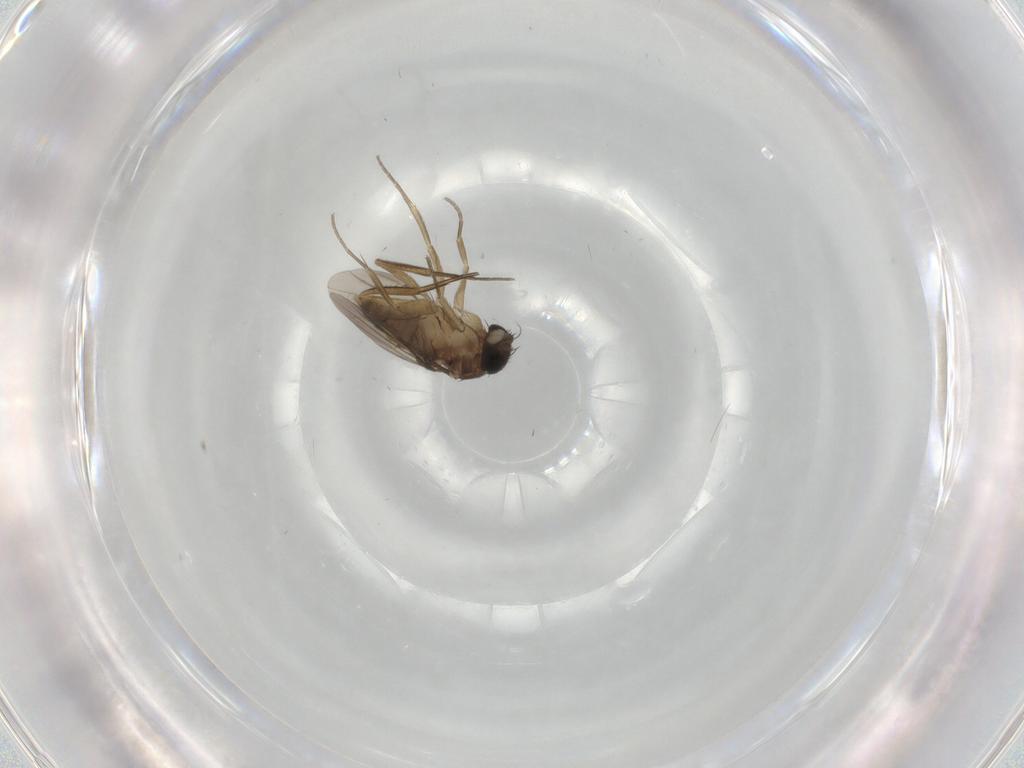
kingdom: Animalia
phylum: Arthropoda
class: Insecta
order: Diptera
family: Phoridae
